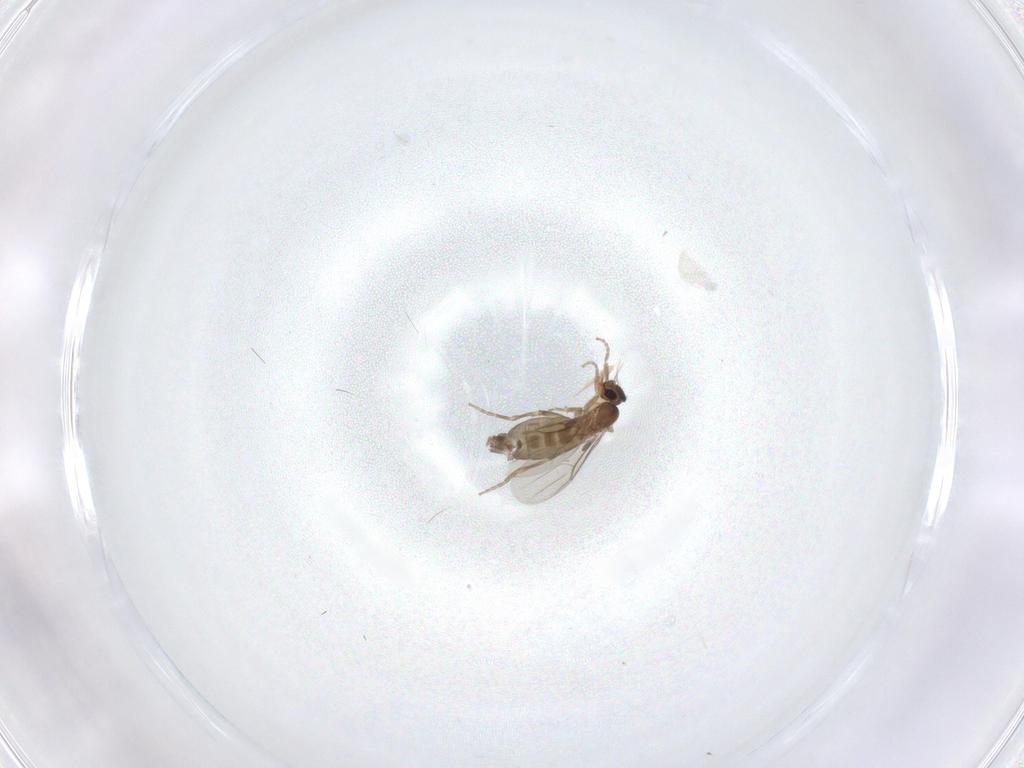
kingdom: Animalia
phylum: Arthropoda
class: Insecta
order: Diptera
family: Phoridae
